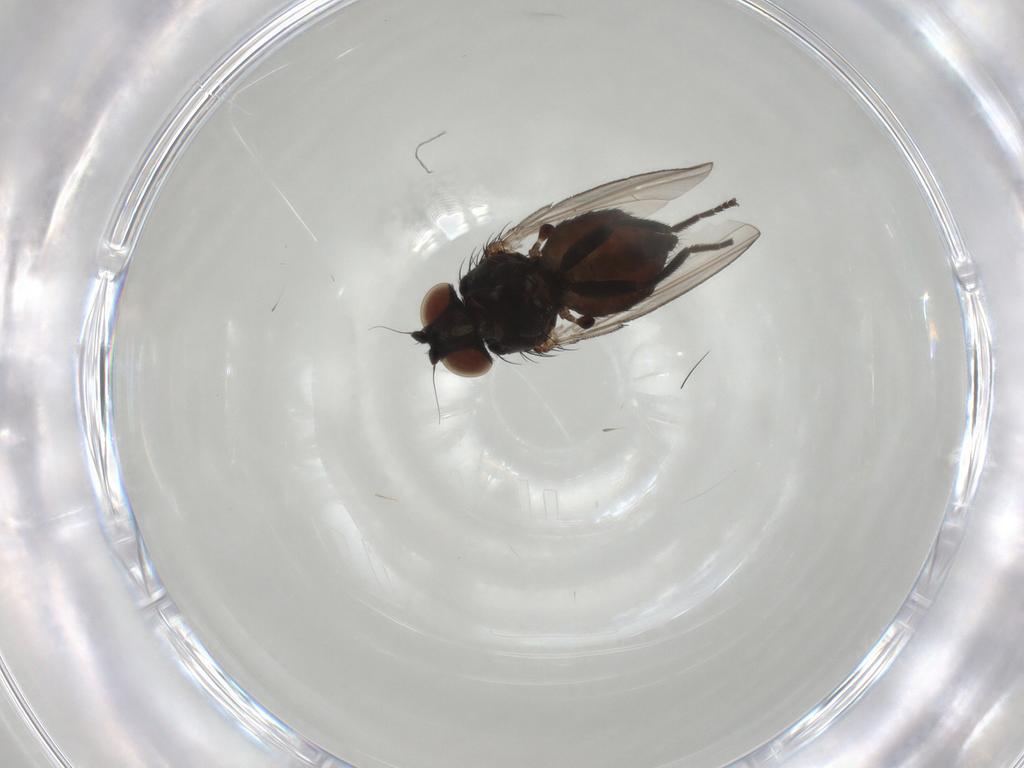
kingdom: Animalia
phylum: Arthropoda
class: Insecta
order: Diptera
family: Milichiidae
